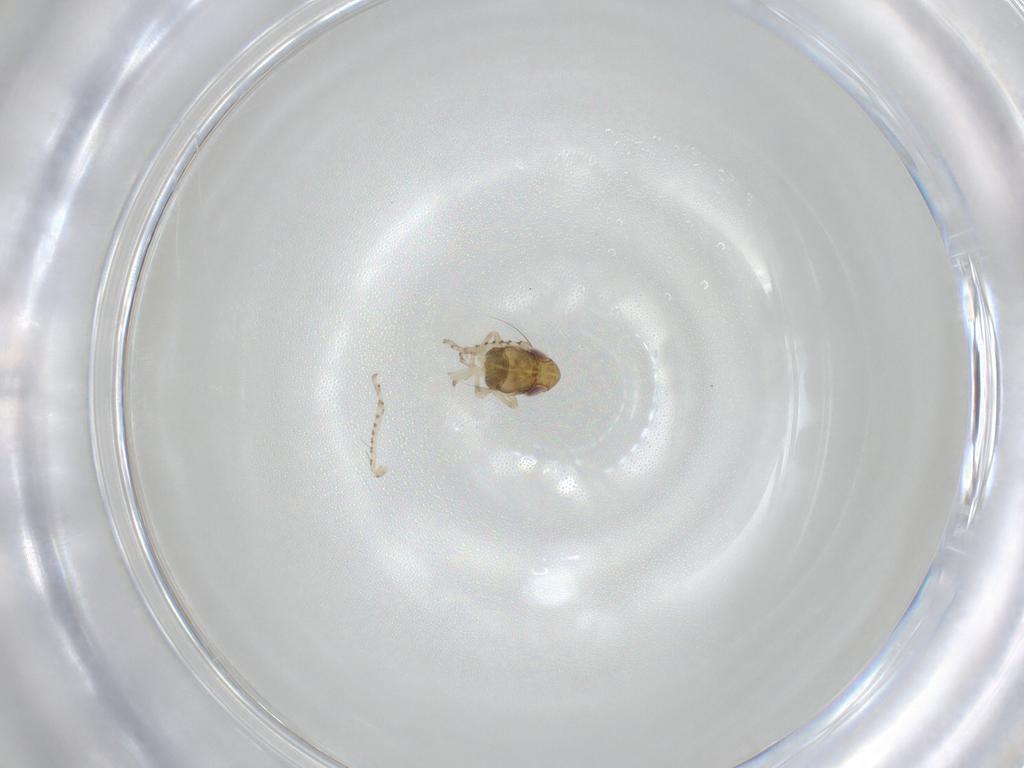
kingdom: Animalia
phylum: Arthropoda
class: Insecta
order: Hemiptera
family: Cicadellidae
